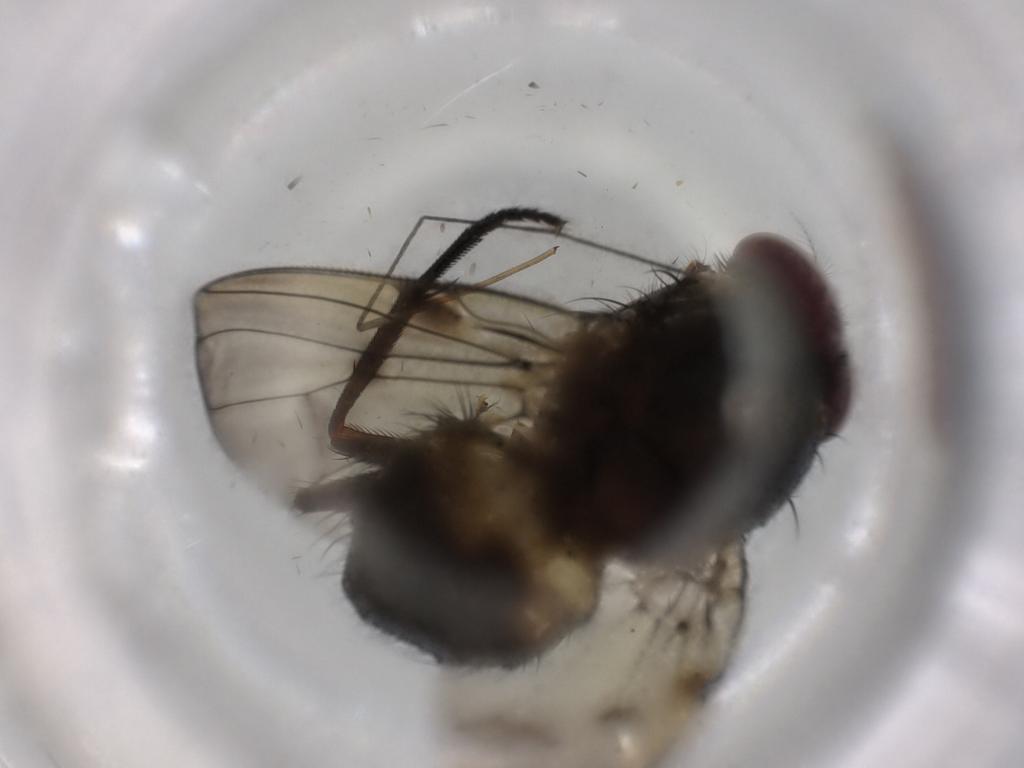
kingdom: Animalia
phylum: Arthropoda
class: Insecta
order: Diptera
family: Muscidae
